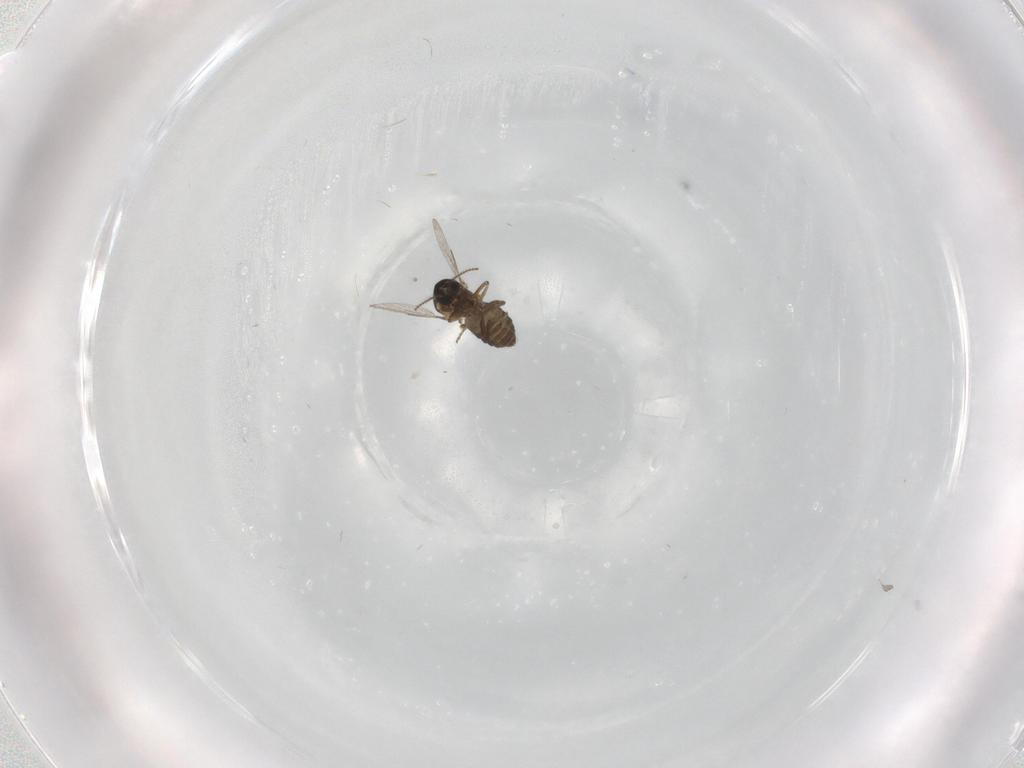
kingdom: Animalia
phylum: Arthropoda
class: Insecta
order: Diptera
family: Ceratopogonidae
